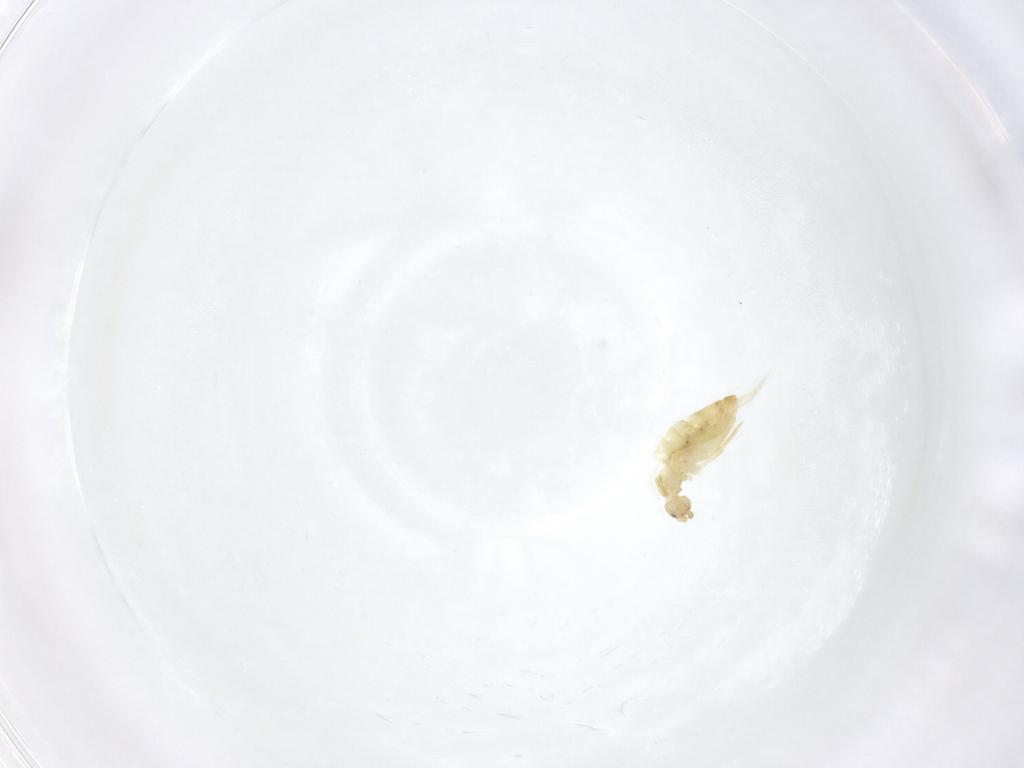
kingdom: Animalia
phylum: Arthropoda
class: Collembola
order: Entomobryomorpha
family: Entomobryidae
